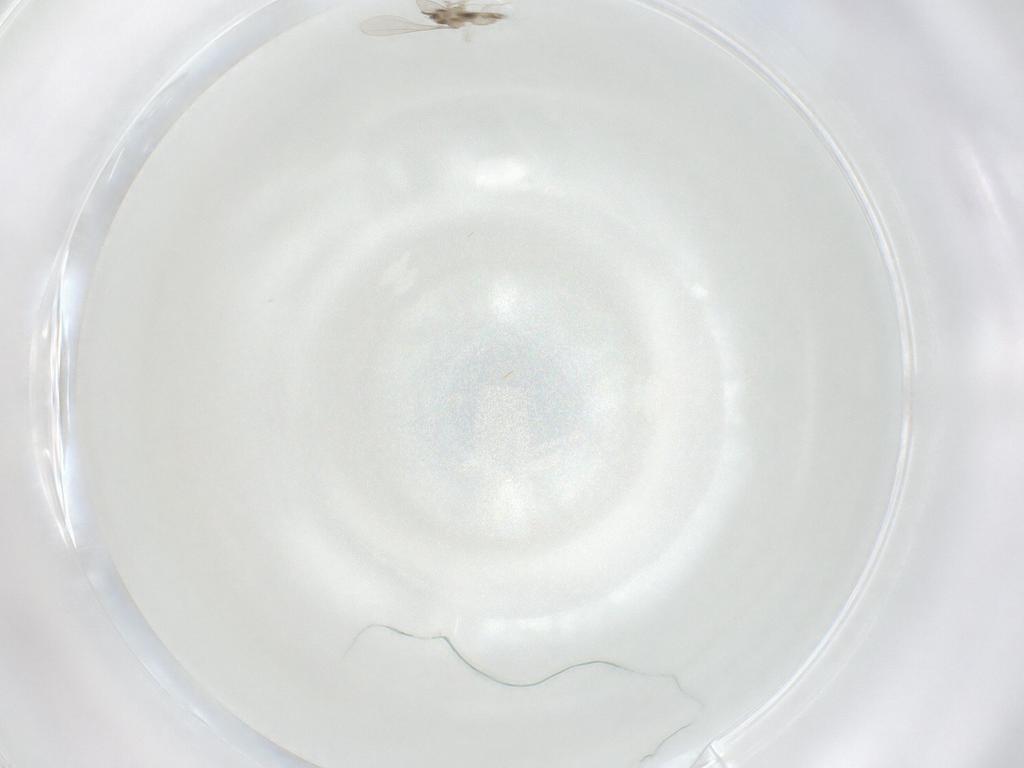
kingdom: Animalia
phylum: Arthropoda
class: Insecta
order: Diptera
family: Cecidomyiidae
